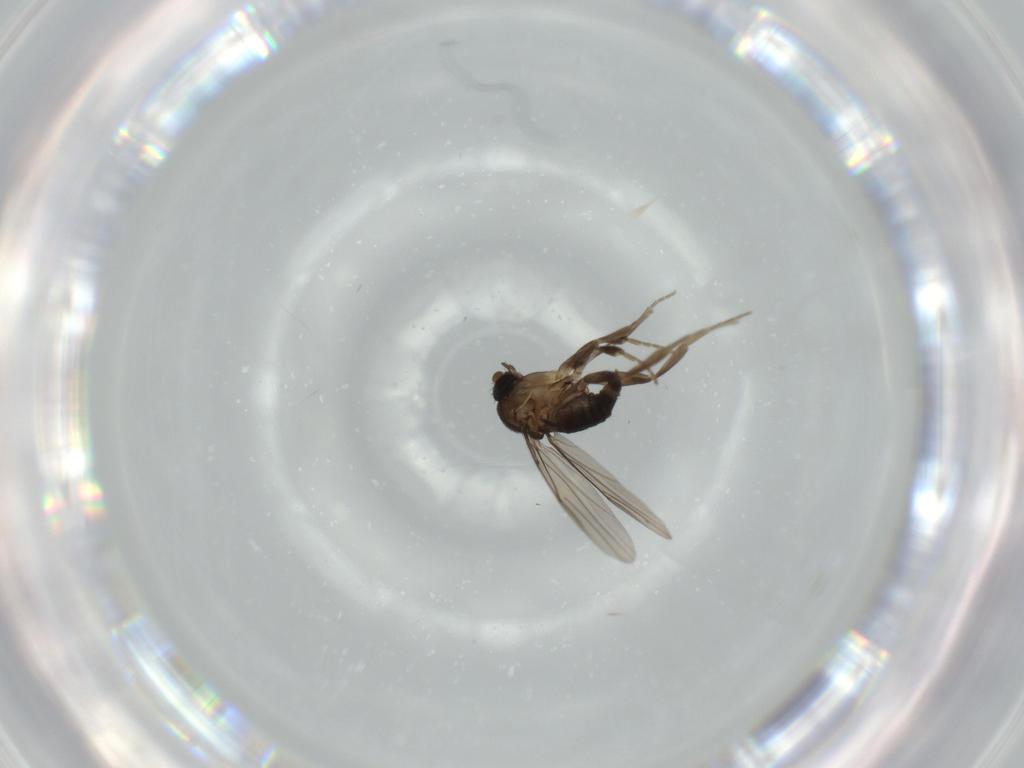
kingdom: Animalia
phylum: Arthropoda
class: Insecta
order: Diptera
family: Phoridae
